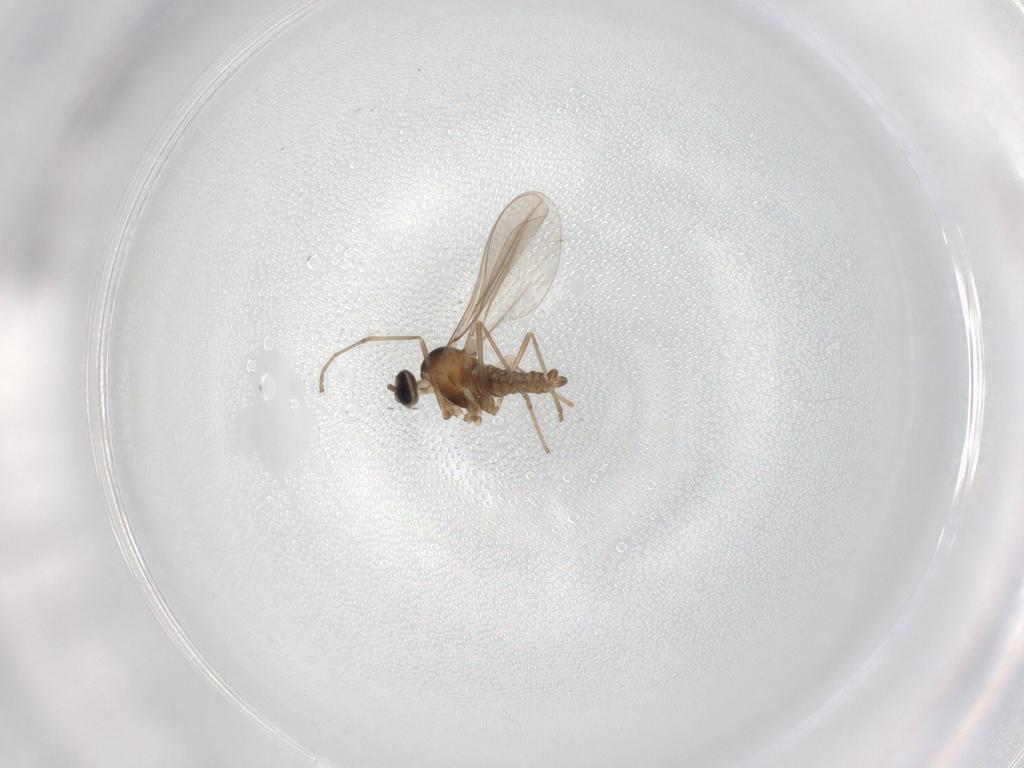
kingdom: Animalia
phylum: Arthropoda
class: Insecta
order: Diptera
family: Cecidomyiidae
